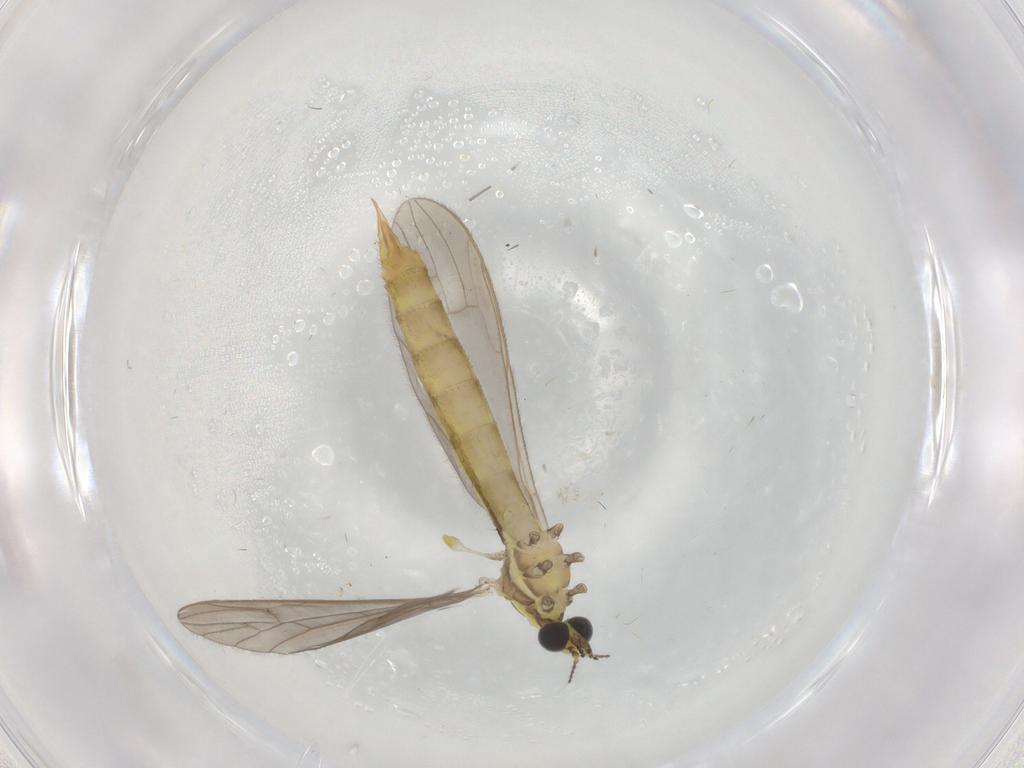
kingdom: Animalia
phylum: Arthropoda
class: Insecta
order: Diptera
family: Limoniidae
